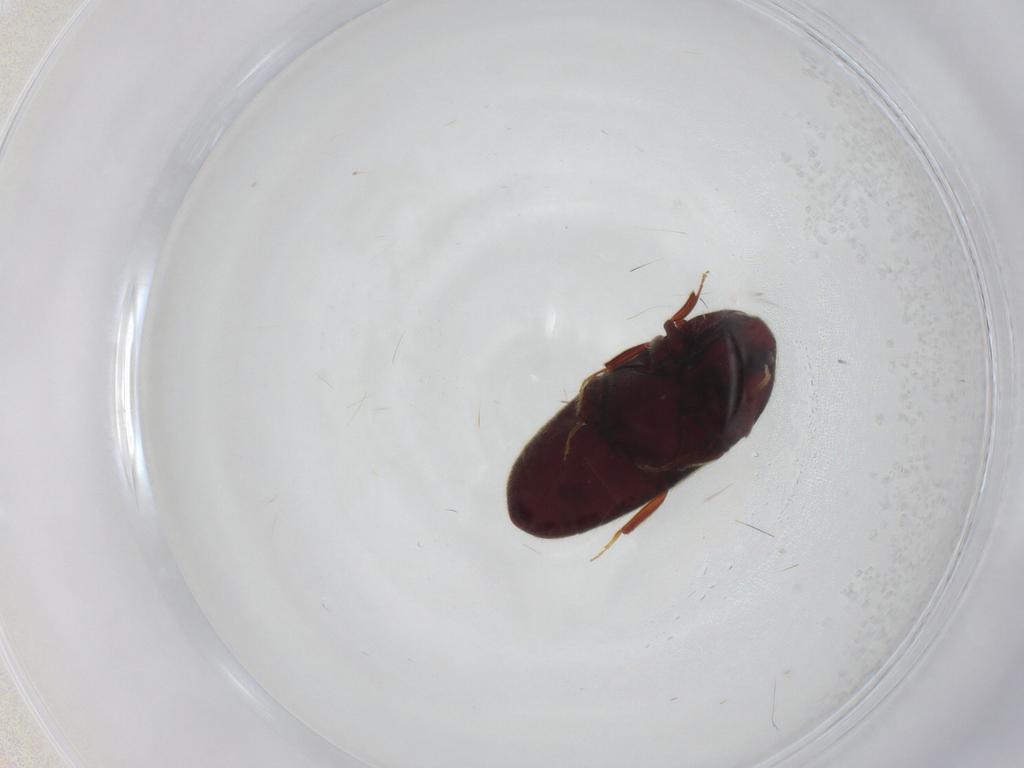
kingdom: Animalia
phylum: Arthropoda
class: Insecta
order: Coleoptera
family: Throscidae
